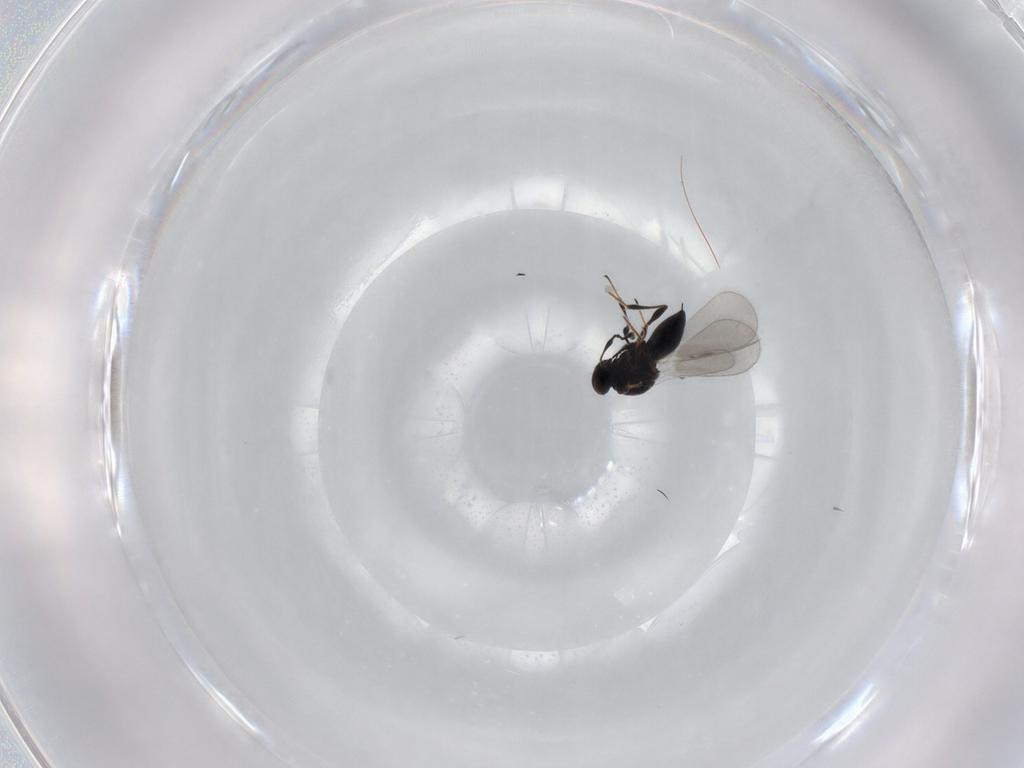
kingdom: Animalia
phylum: Arthropoda
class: Insecta
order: Hymenoptera
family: Platygastridae
